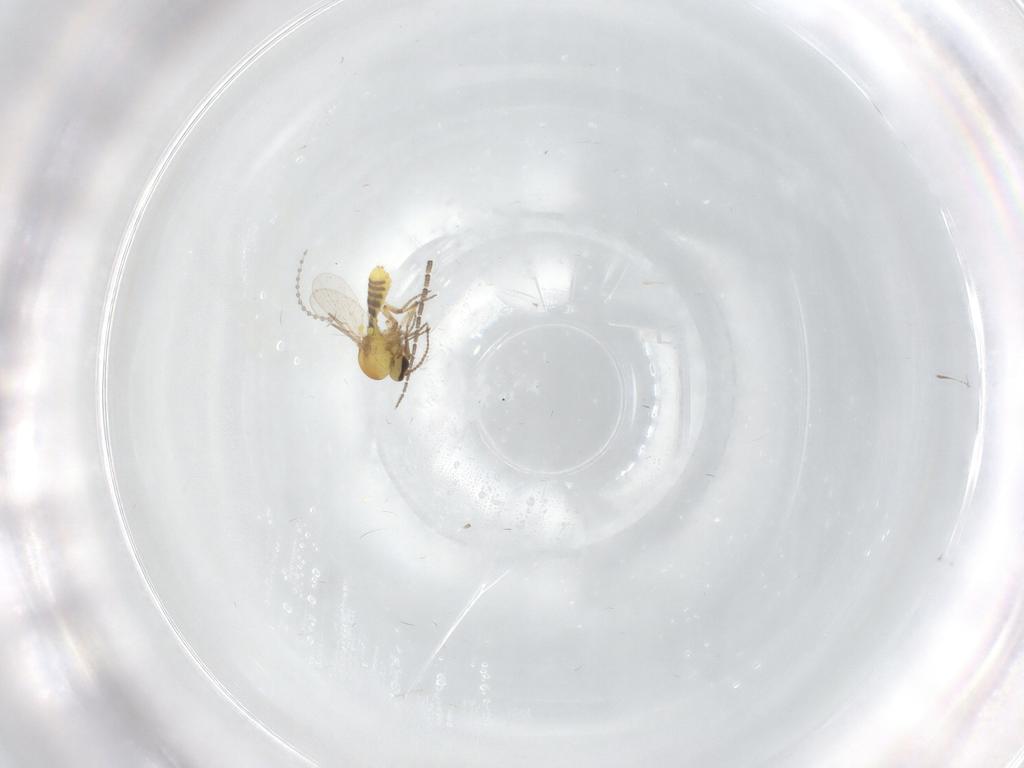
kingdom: Animalia
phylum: Arthropoda
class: Insecta
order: Diptera
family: Ceratopogonidae
